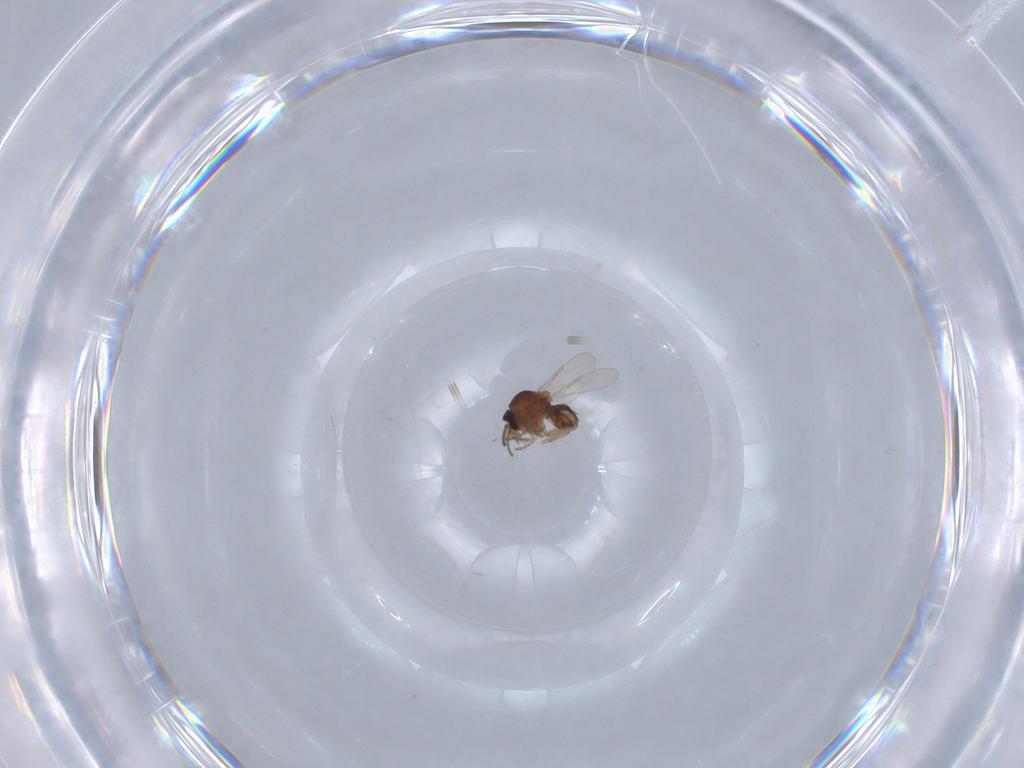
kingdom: Animalia
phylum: Arthropoda
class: Insecta
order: Diptera
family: Ceratopogonidae
